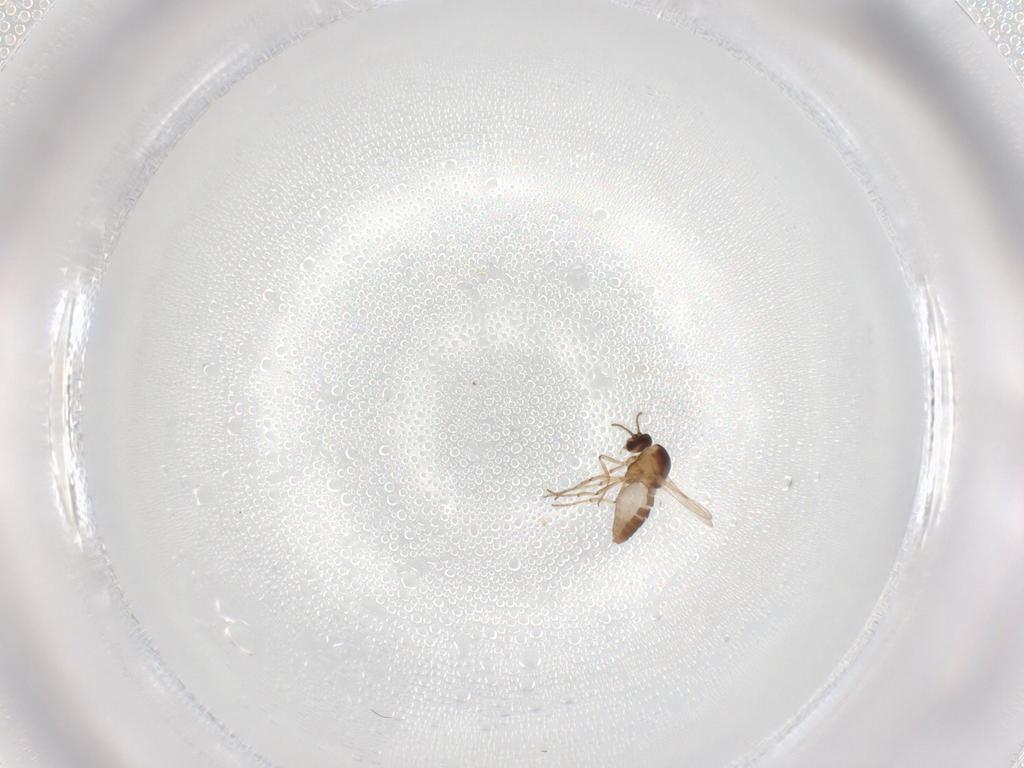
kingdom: Animalia
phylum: Arthropoda
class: Insecta
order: Diptera
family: Ceratopogonidae
